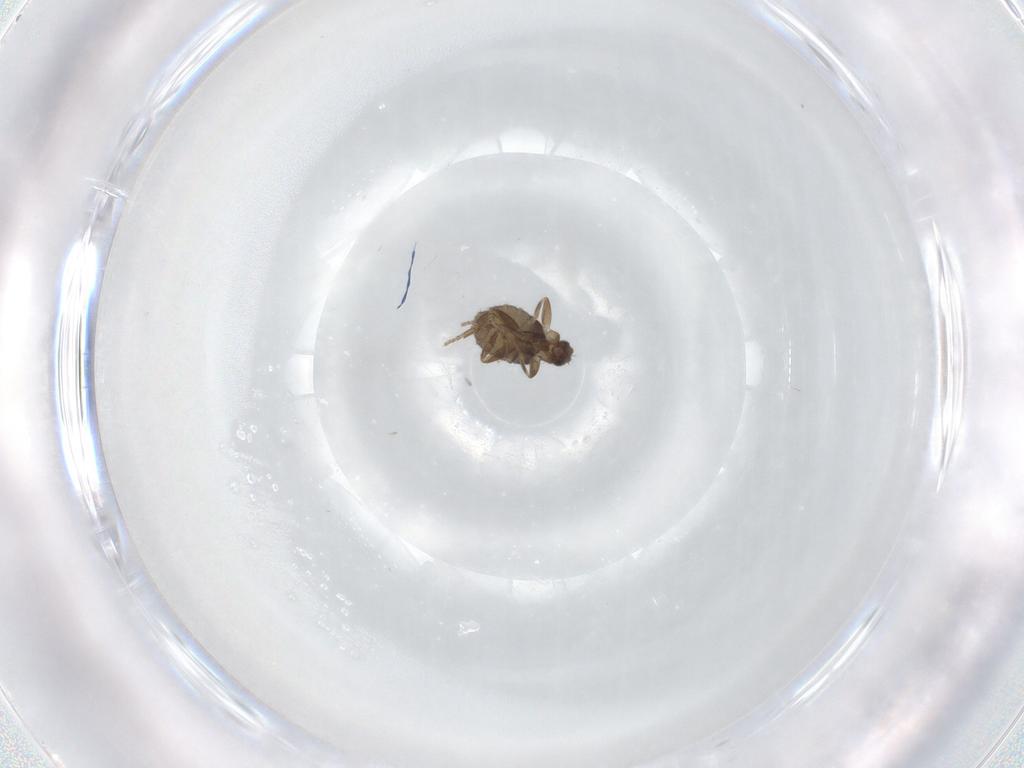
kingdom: Animalia
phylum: Arthropoda
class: Insecta
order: Diptera
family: Phoridae
